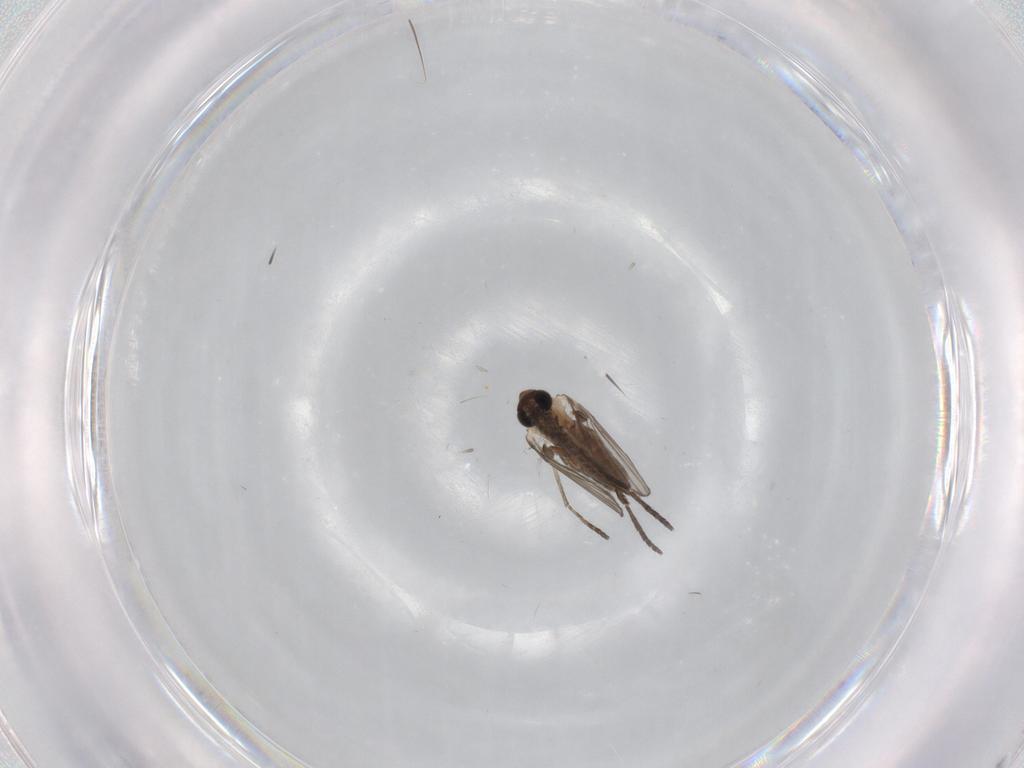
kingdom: Animalia
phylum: Arthropoda
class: Insecta
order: Diptera
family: Psychodidae
